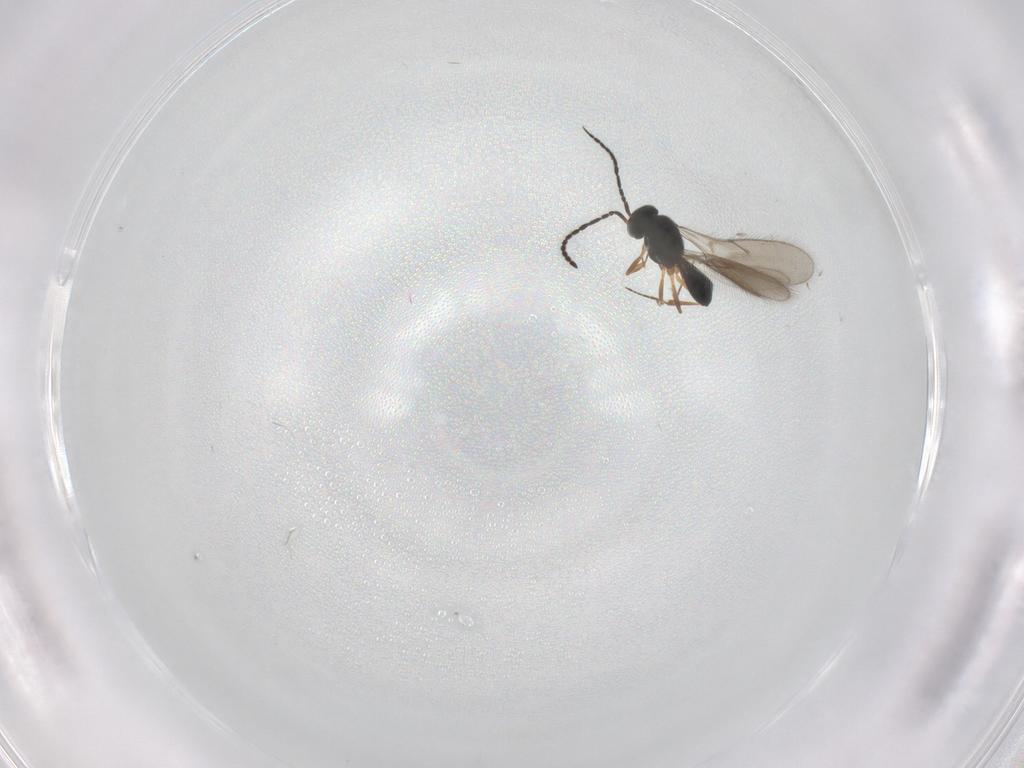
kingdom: Animalia
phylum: Arthropoda
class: Insecta
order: Hymenoptera
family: Scelionidae
